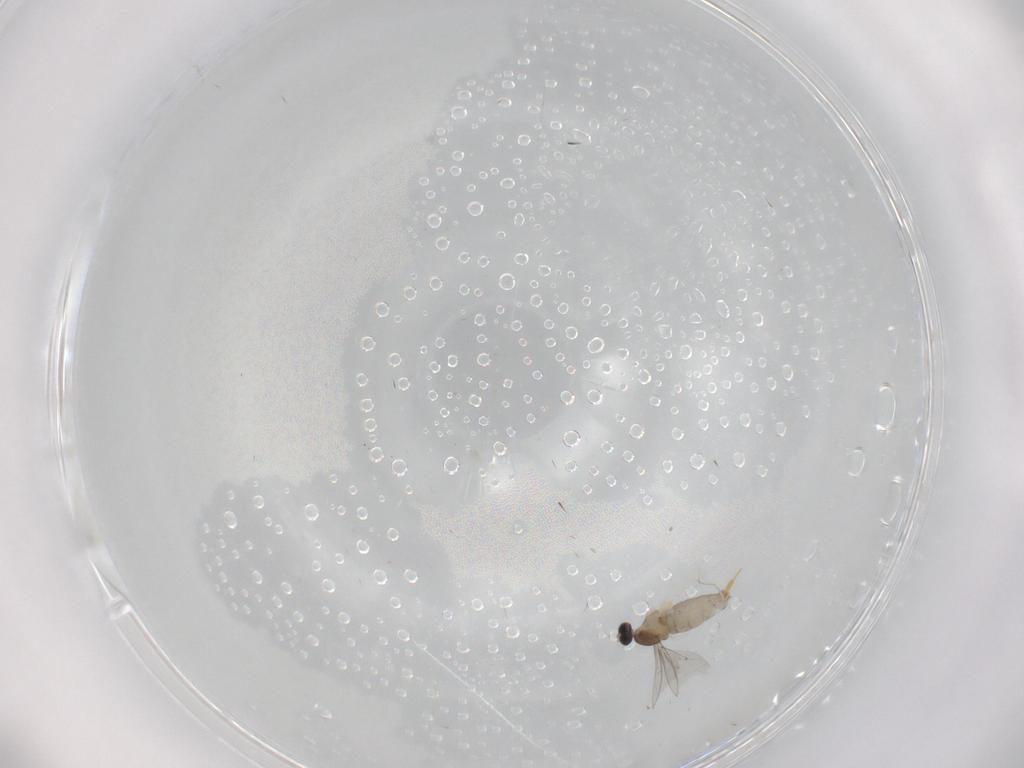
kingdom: Animalia
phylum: Arthropoda
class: Insecta
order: Diptera
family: Cecidomyiidae
